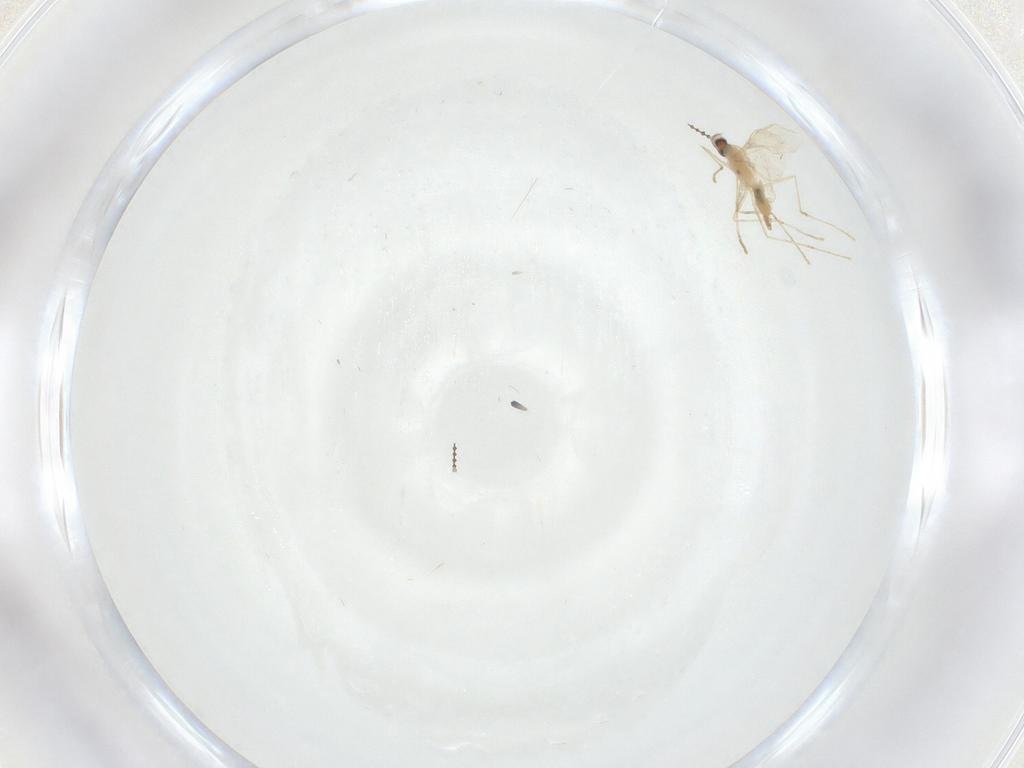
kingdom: Animalia
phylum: Arthropoda
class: Insecta
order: Diptera
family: Cecidomyiidae
